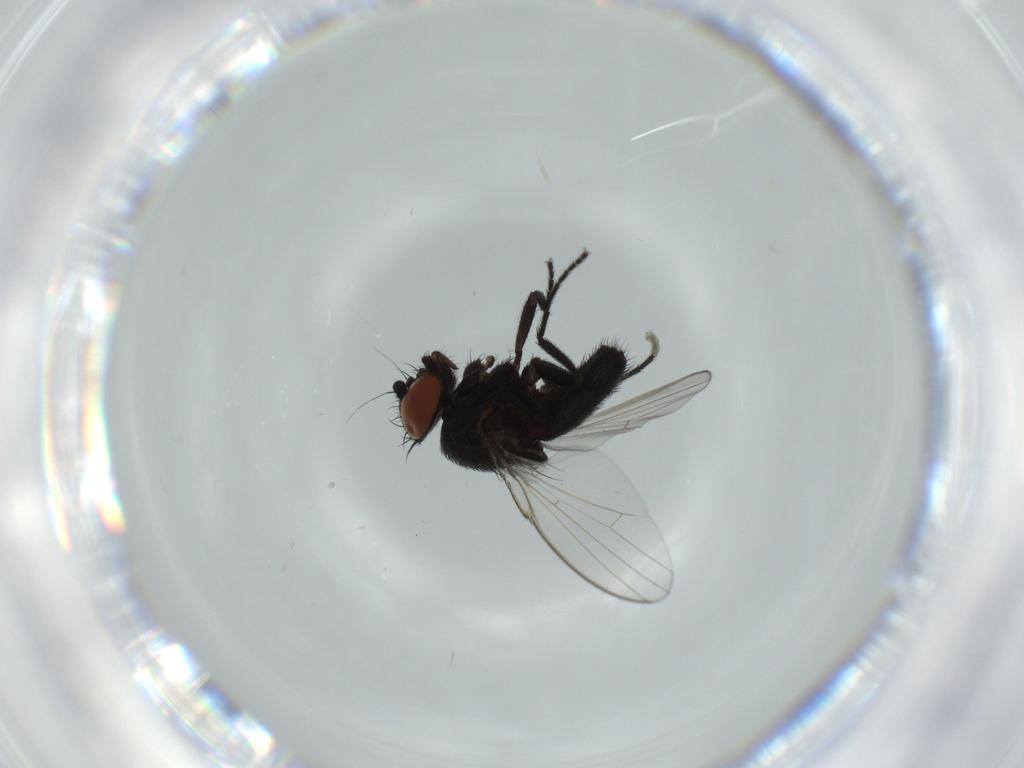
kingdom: Animalia
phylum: Arthropoda
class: Insecta
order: Diptera
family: Milichiidae
